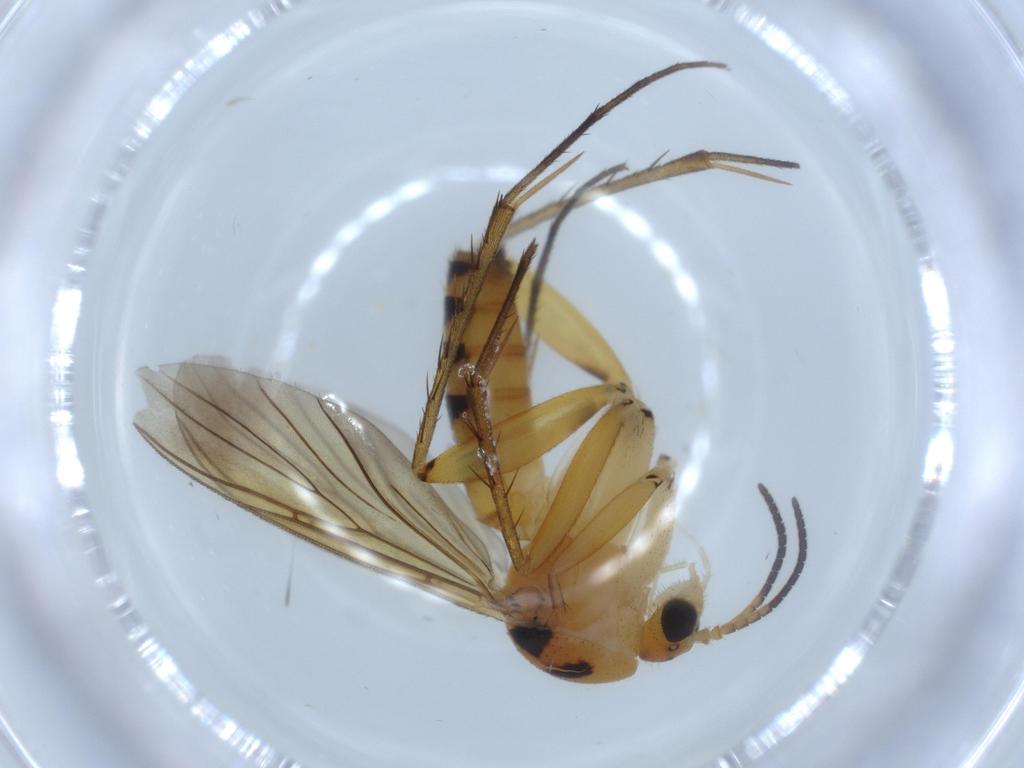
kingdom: Animalia
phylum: Arthropoda
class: Insecta
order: Diptera
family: Mycetophilidae
